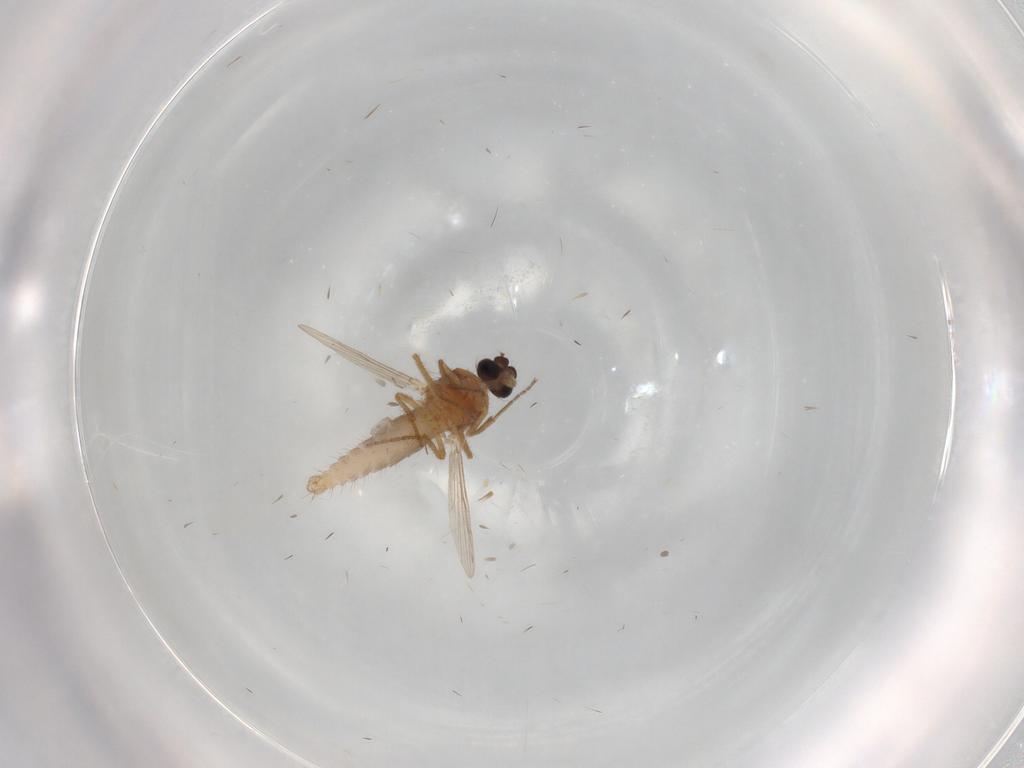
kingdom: Animalia
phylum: Arthropoda
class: Insecta
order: Diptera
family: Ceratopogonidae
